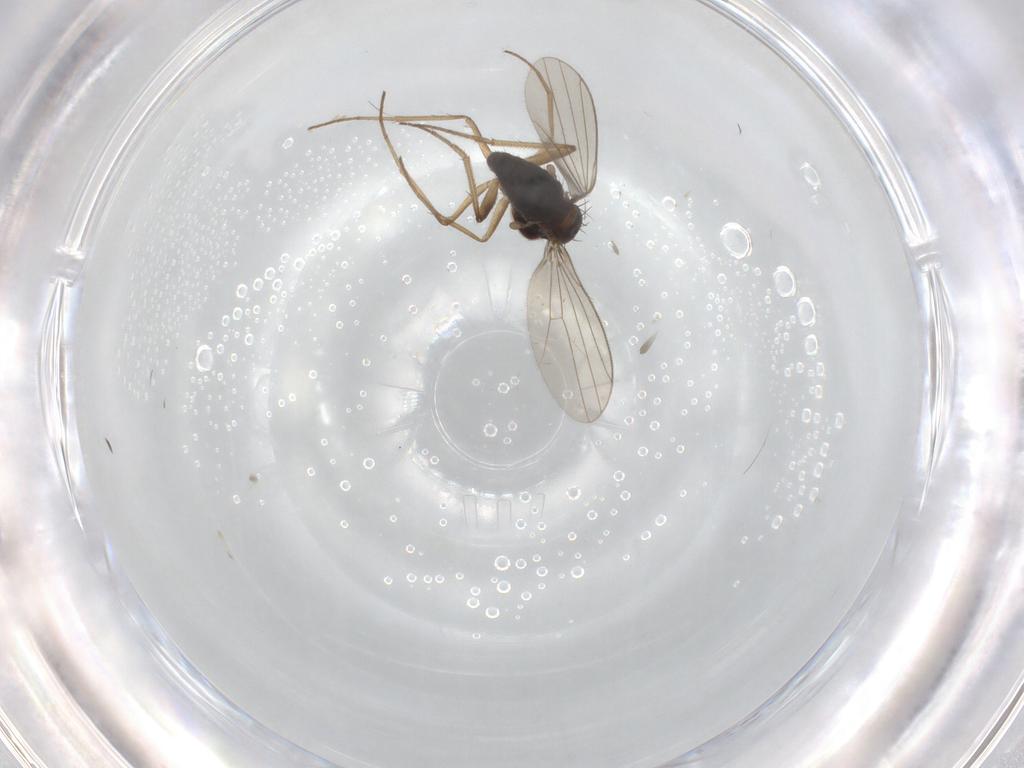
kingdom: Animalia
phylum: Arthropoda
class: Insecta
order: Diptera
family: Dolichopodidae
